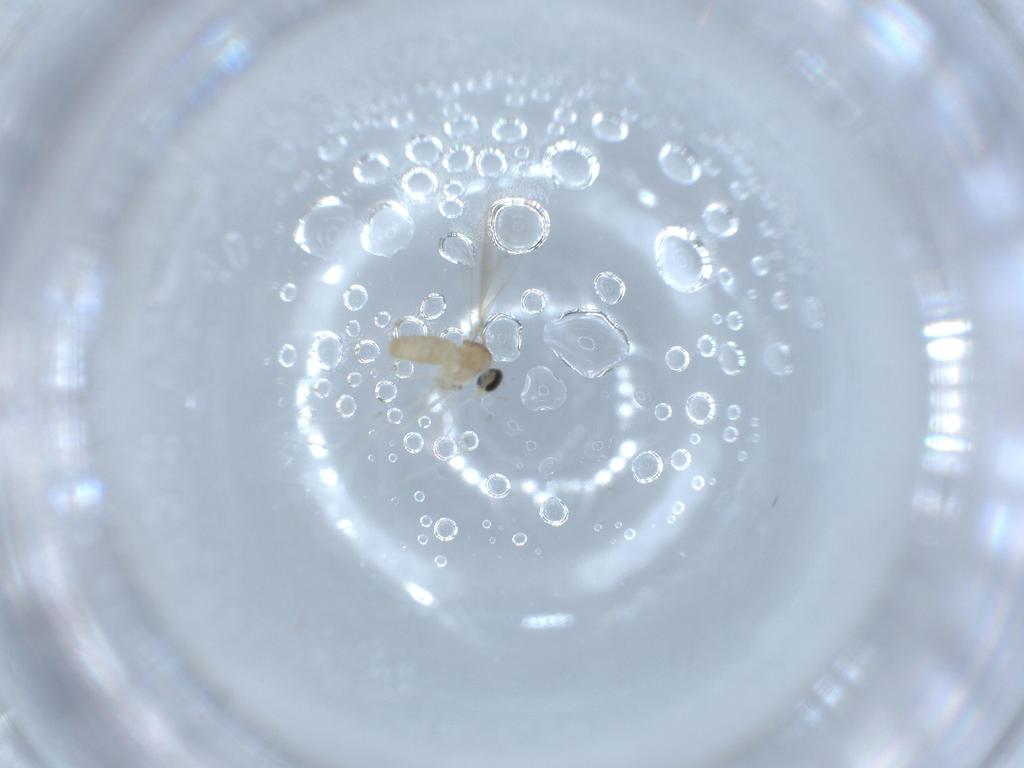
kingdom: Animalia
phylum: Arthropoda
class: Insecta
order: Diptera
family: Cecidomyiidae
